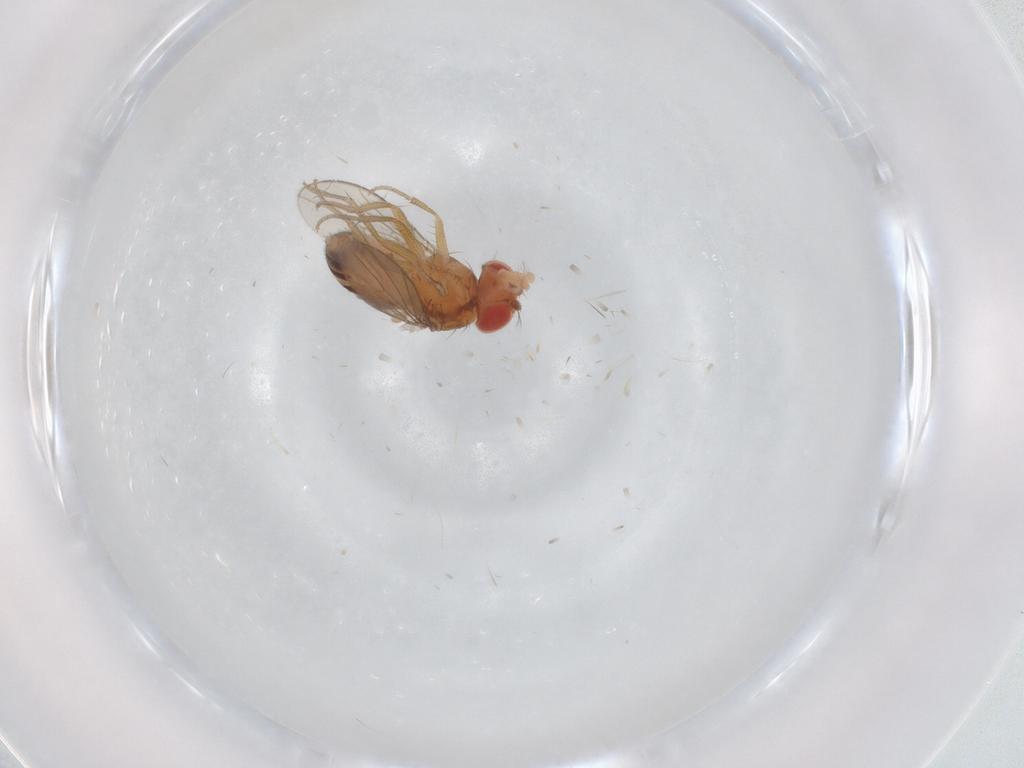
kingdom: Animalia
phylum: Arthropoda
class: Insecta
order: Diptera
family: Drosophilidae
